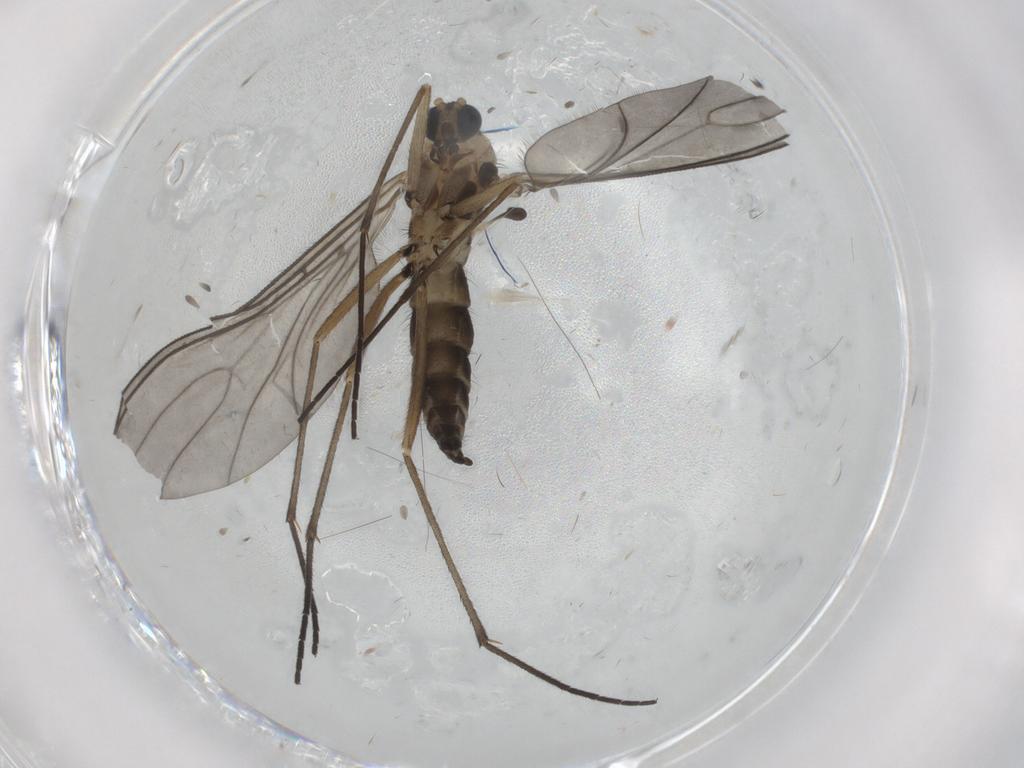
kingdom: Animalia
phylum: Arthropoda
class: Insecta
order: Diptera
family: Sciaridae
